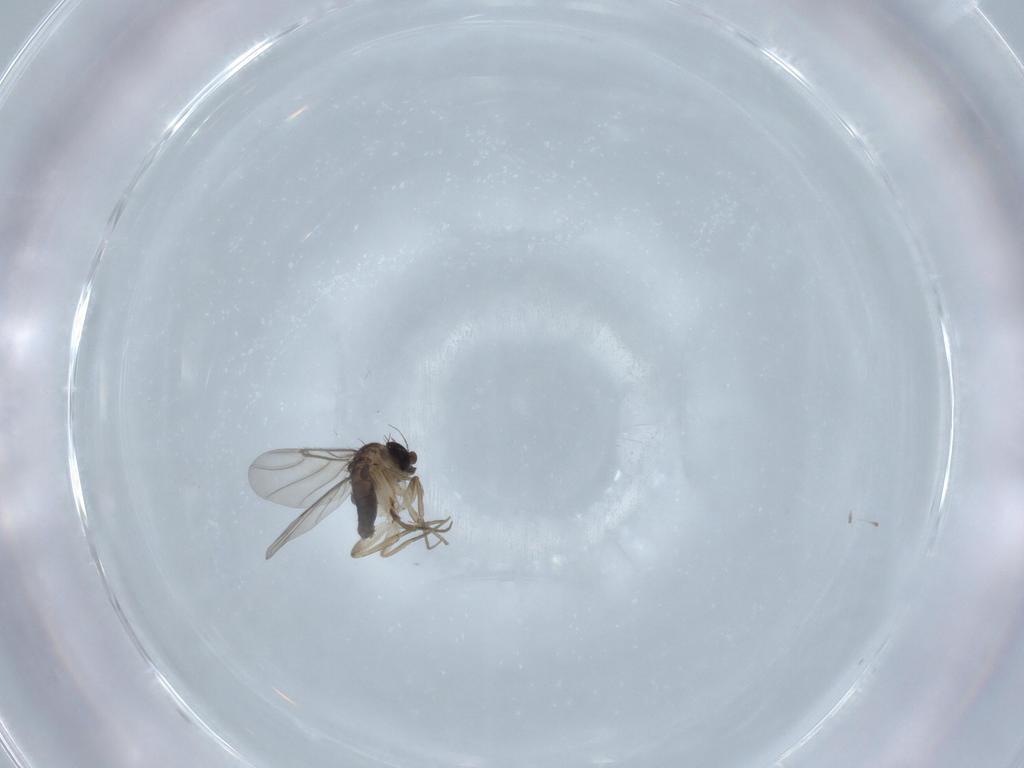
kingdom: Animalia
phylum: Arthropoda
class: Insecta
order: Diptera
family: Phoridae
